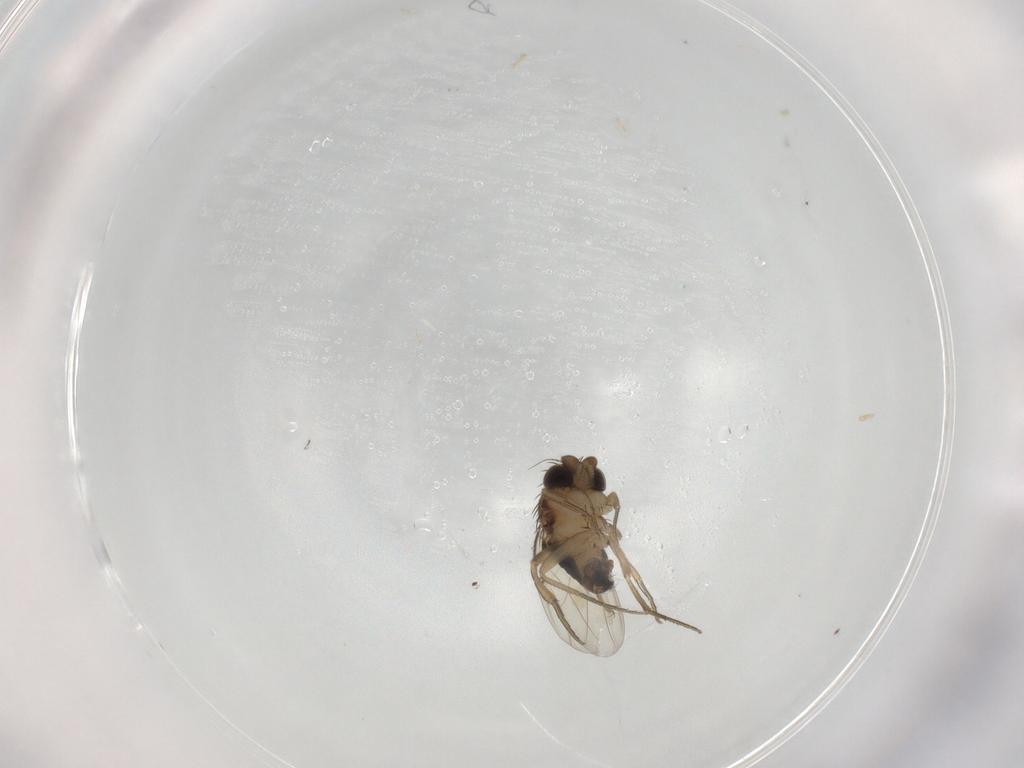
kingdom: Animalia
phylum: Arthropoda
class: Insecta
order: Diptera
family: Phoridae
